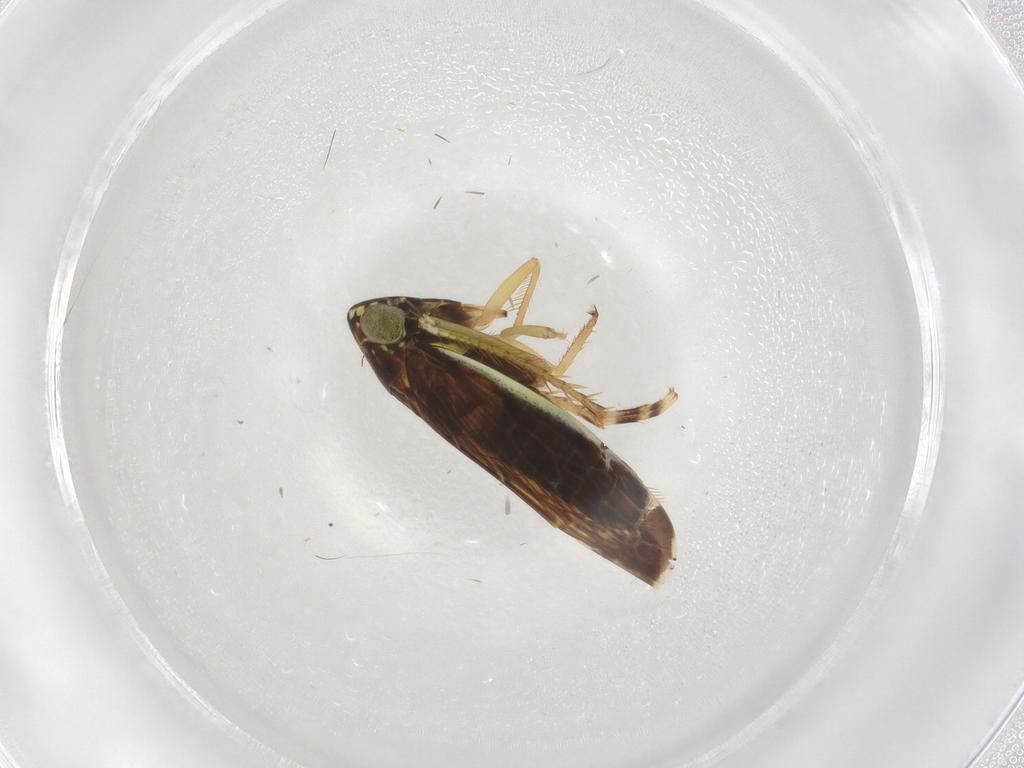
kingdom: Animalia
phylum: Arthropoda
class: Insecta
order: Hemiptera
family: Cicadellidae
